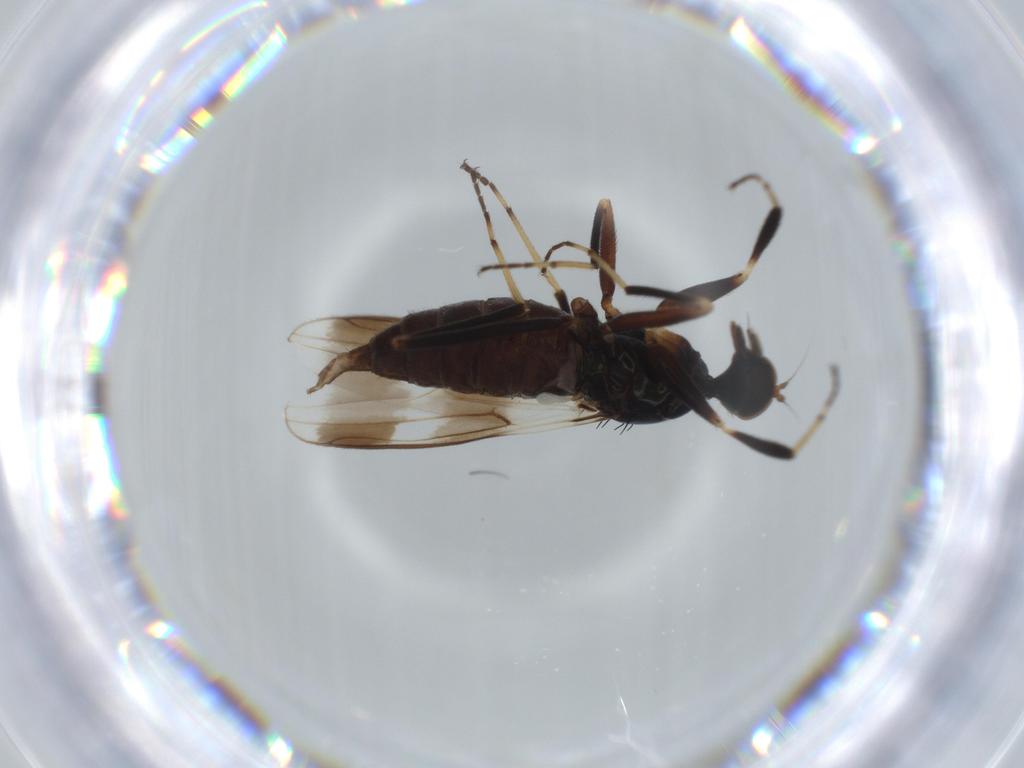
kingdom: Animalia
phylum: Arthropoda
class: Insecta
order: Diptera
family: Hybotidae
